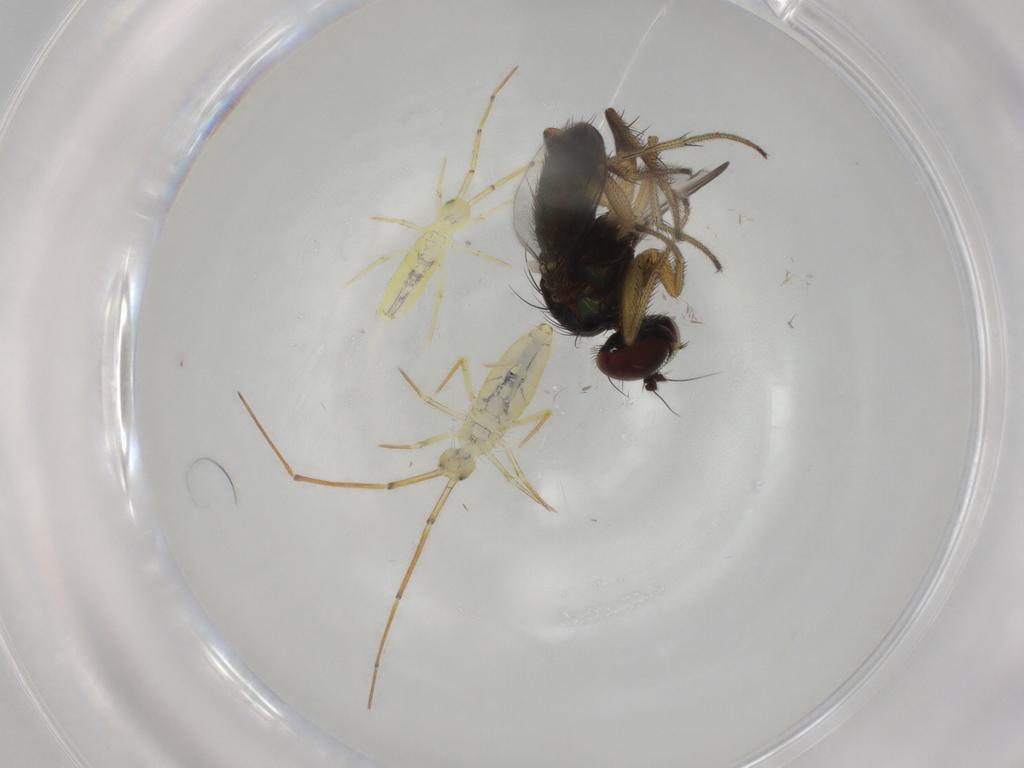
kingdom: Animalia
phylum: Arthropoda
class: Insecta
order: Diptera
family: Dolichopodidae
